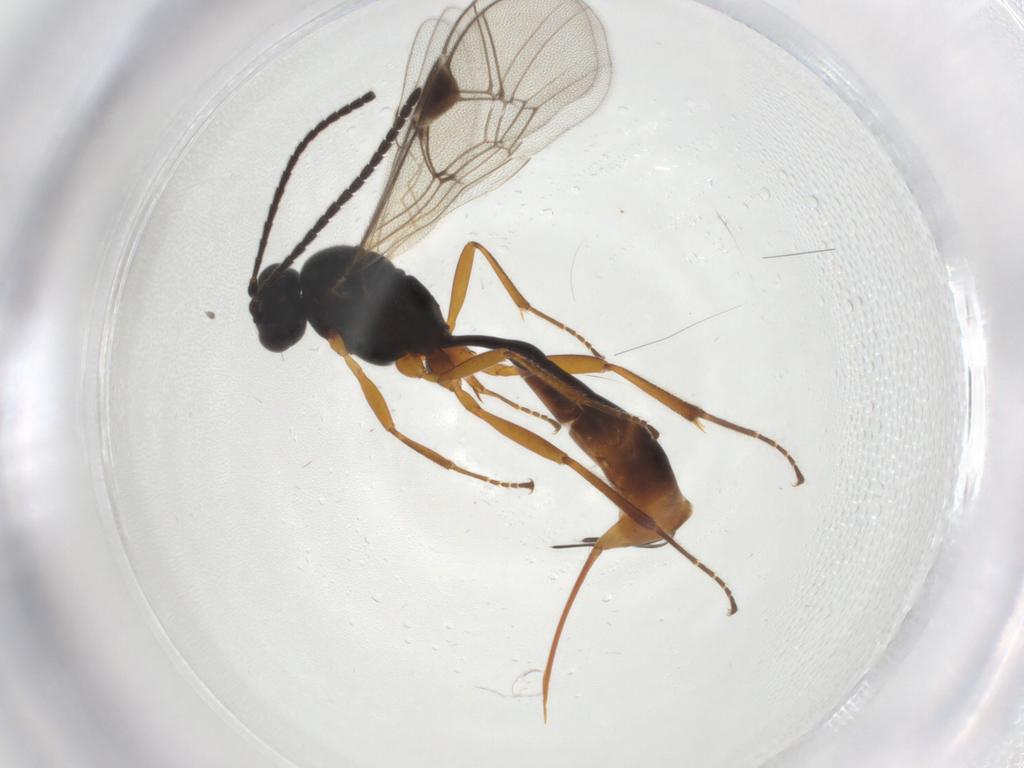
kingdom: Animalia
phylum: Arthropoda
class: Insecta
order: Hymenoptera
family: Ichneumonidae
